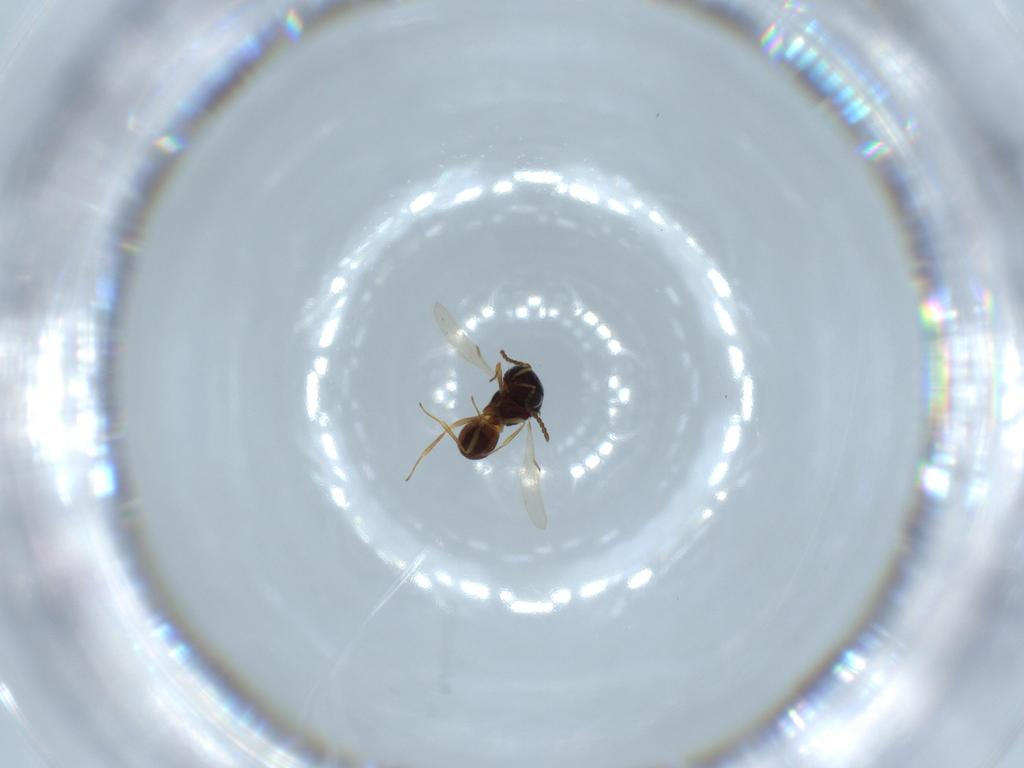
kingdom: Animalia
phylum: Arthropoda
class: Insecta
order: Hymenoptera
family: Scelionidae
